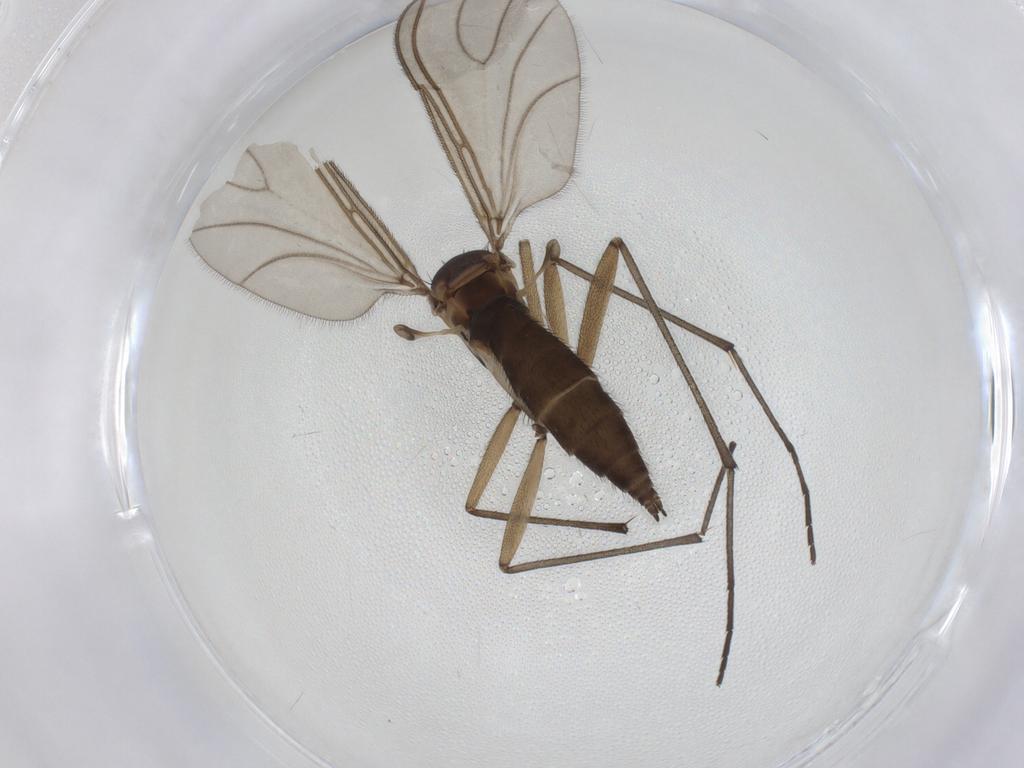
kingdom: Animalia
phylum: Arthropoda
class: Insecta
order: Diptera
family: Sciaridae
